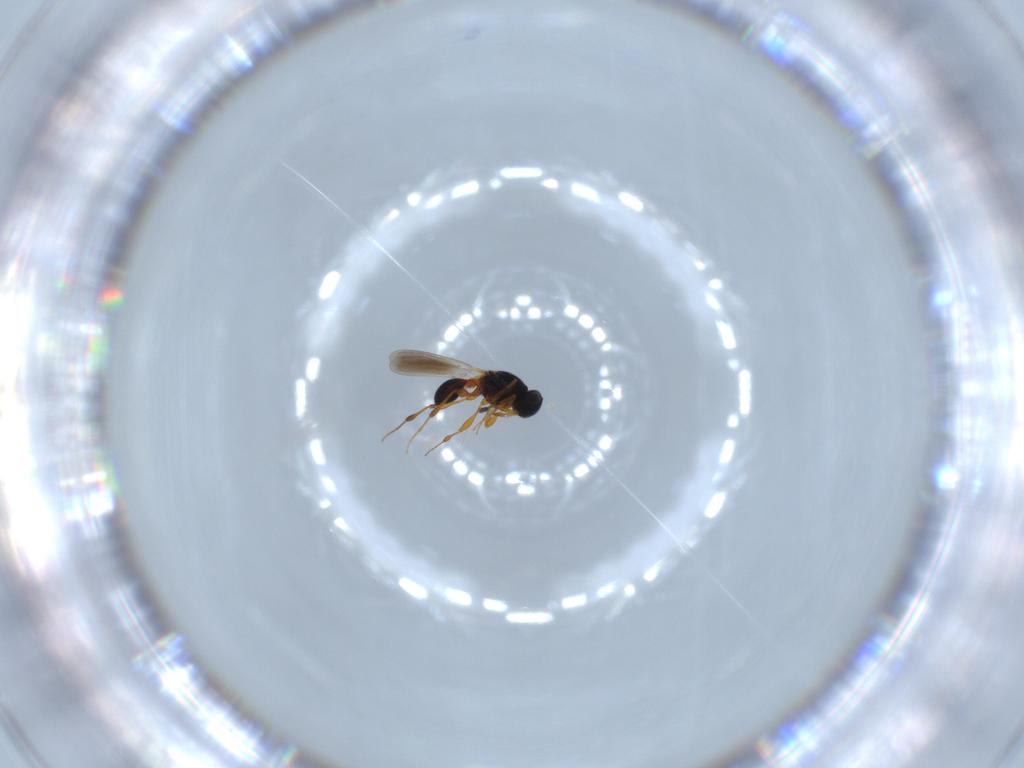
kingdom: Animalia
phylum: Arthropoda
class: Insecta
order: Hymenoptera
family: Platygastridae
